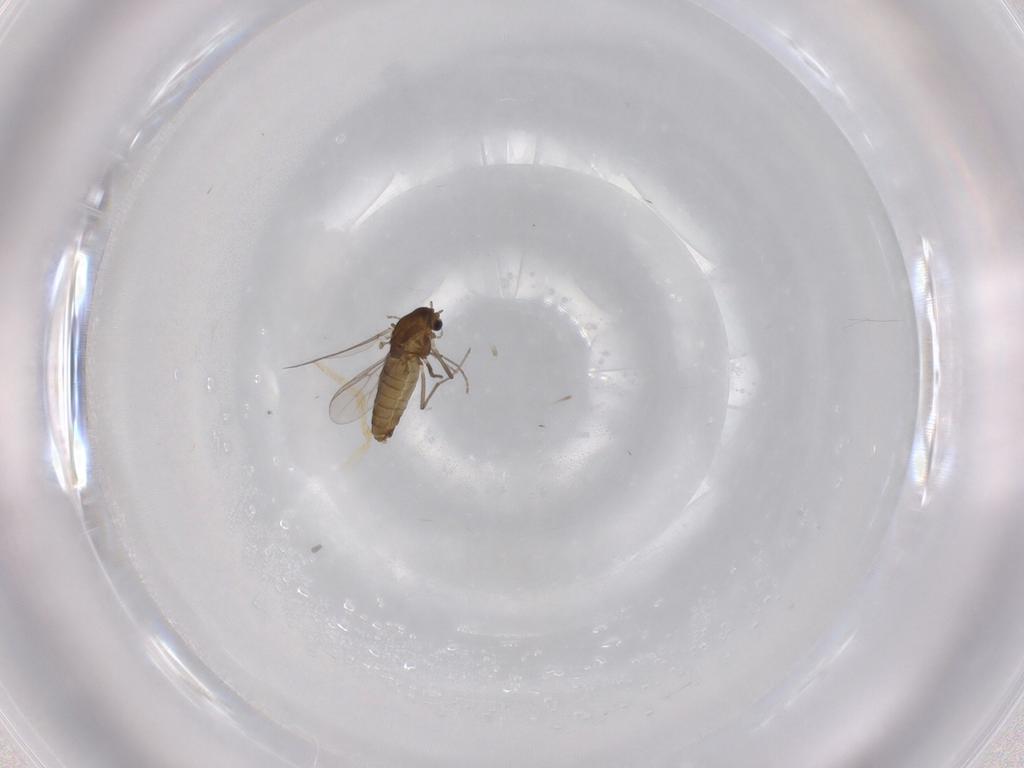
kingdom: Animalia
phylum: Arthropoda
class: Insecta
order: Diptera
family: Chironomidae
